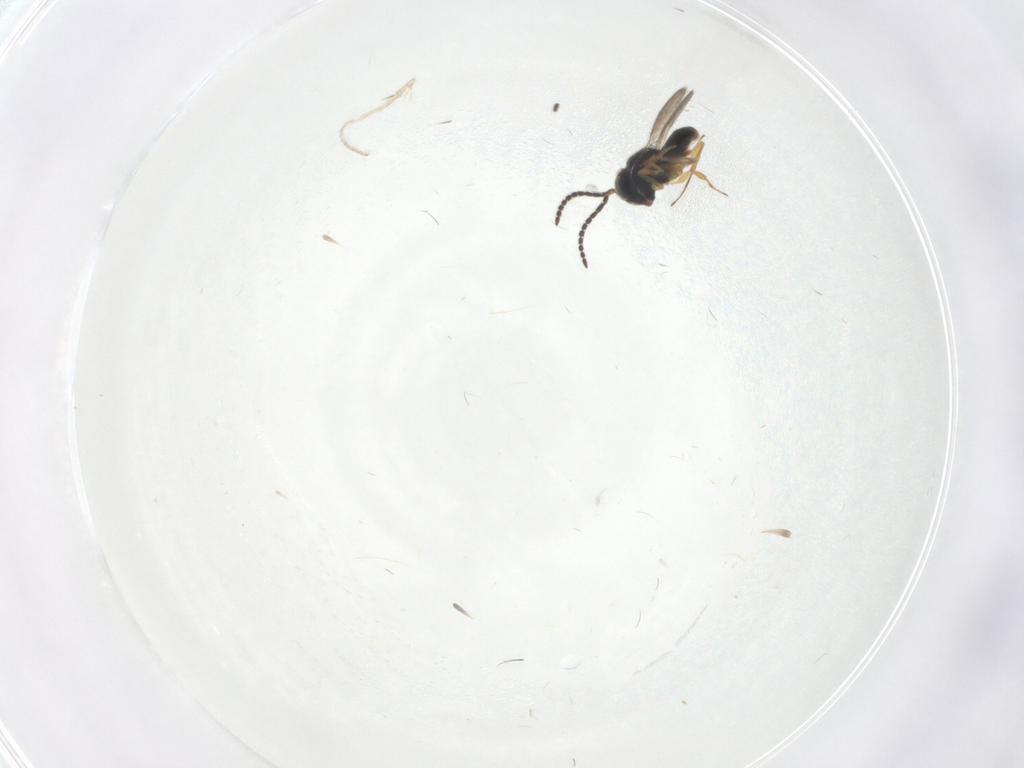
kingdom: Animalia
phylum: Arthropoda
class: Insecta
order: Hymenoptera
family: Scelionidae
